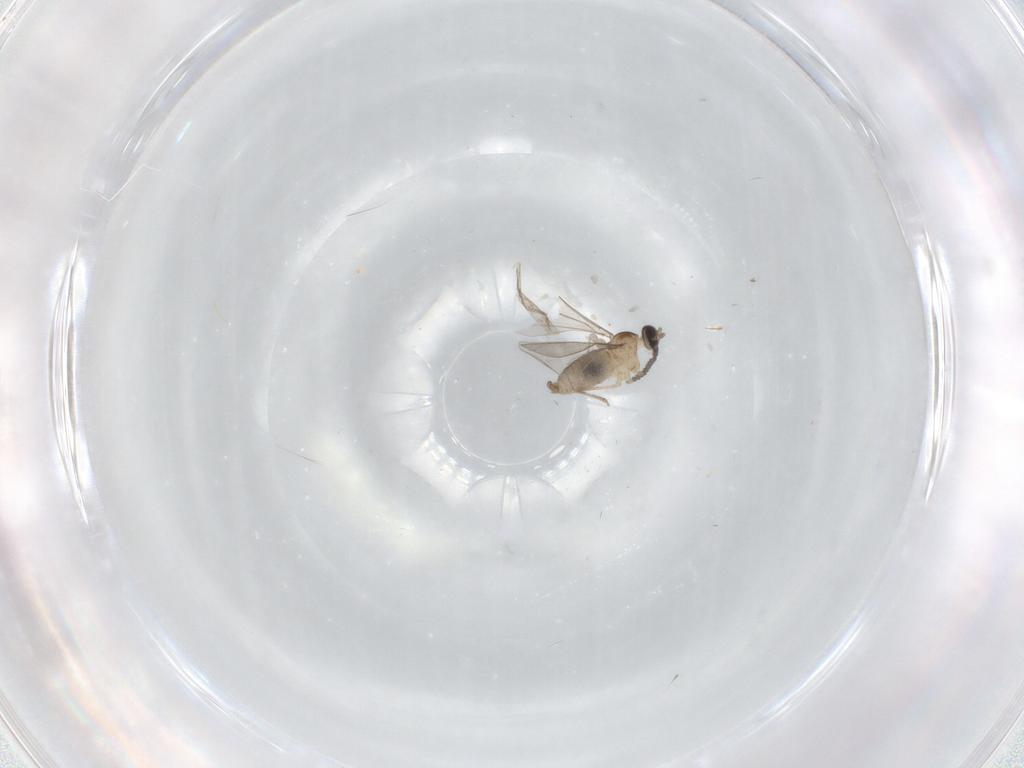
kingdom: Animalia
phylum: Arthropoda
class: Insecta
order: Diptera
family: Cecidomyiidae
